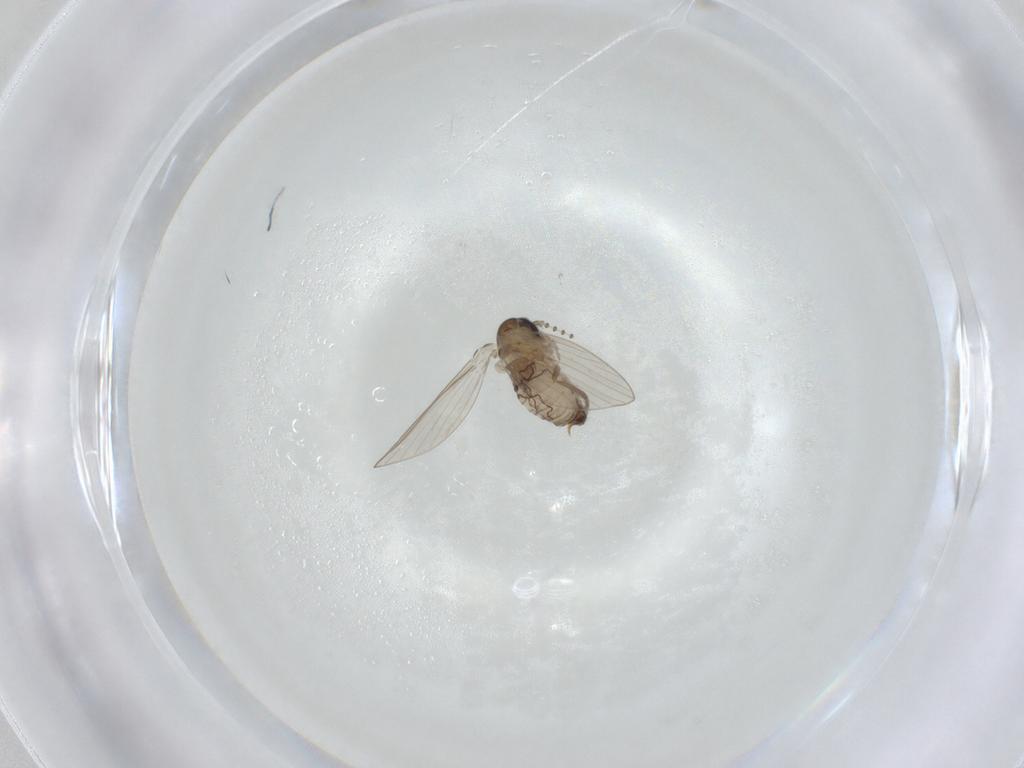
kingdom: Animalia
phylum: Arthropoda
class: Insecta
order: Diptera
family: Psychodidae
